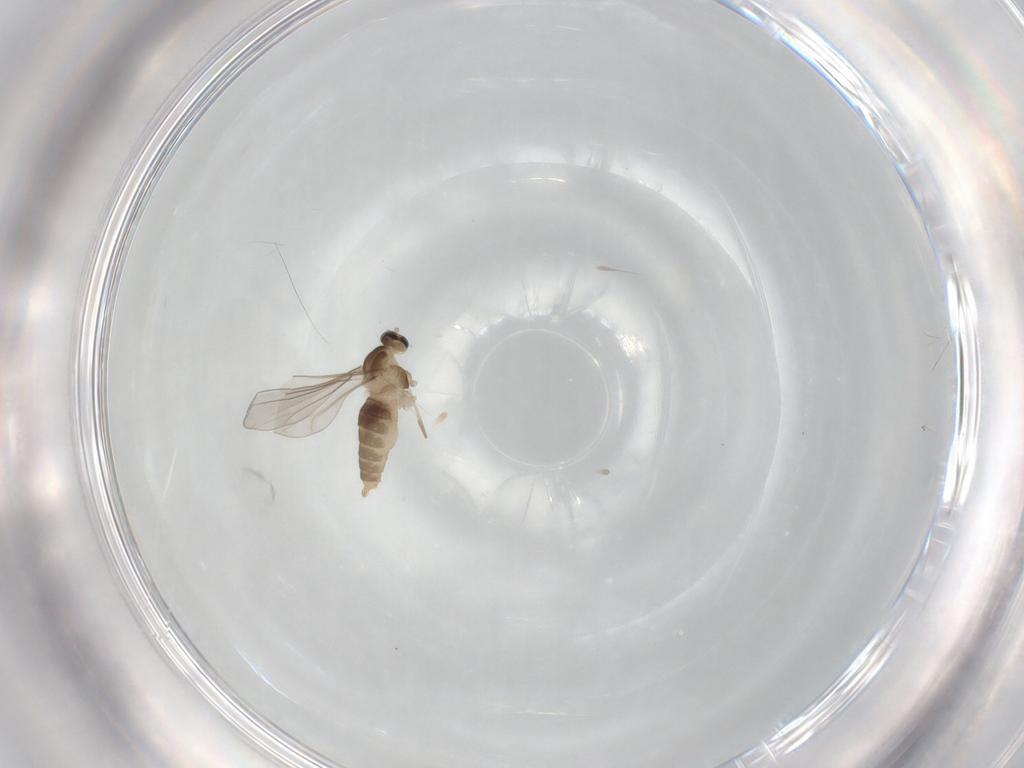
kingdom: Animalia
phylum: Arthropoda
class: Insecta
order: Diptera
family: Cecidomyiidae
